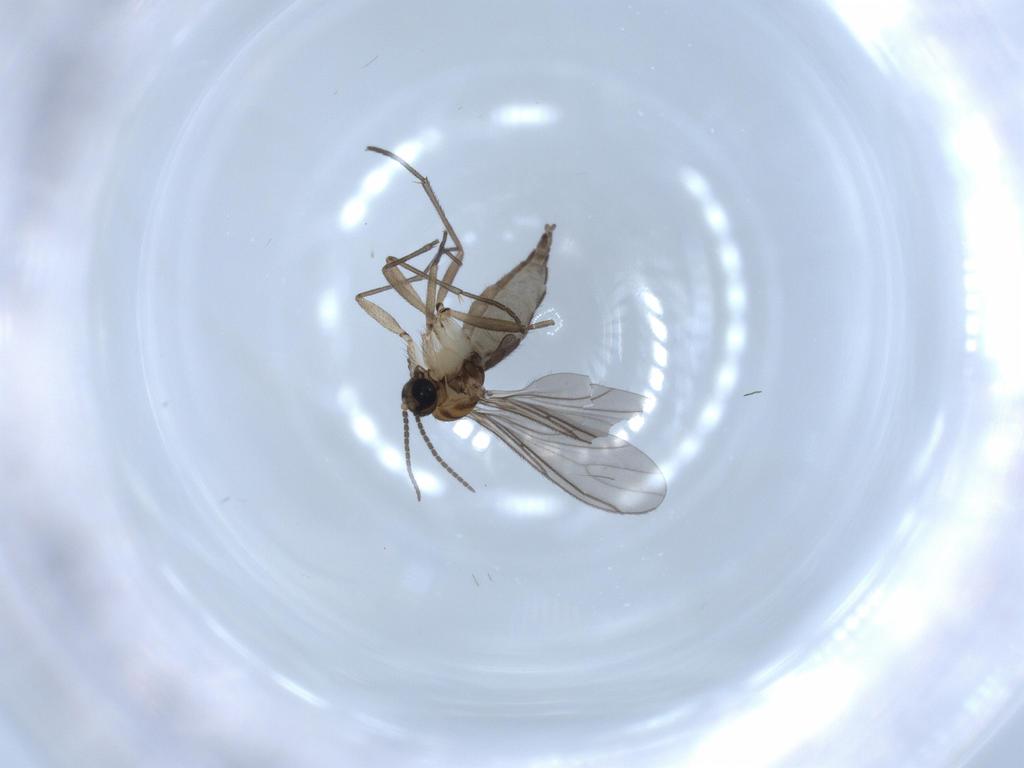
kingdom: Animalia
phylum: Arthropoda
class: Insecta
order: Diptera
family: Sciaridae
